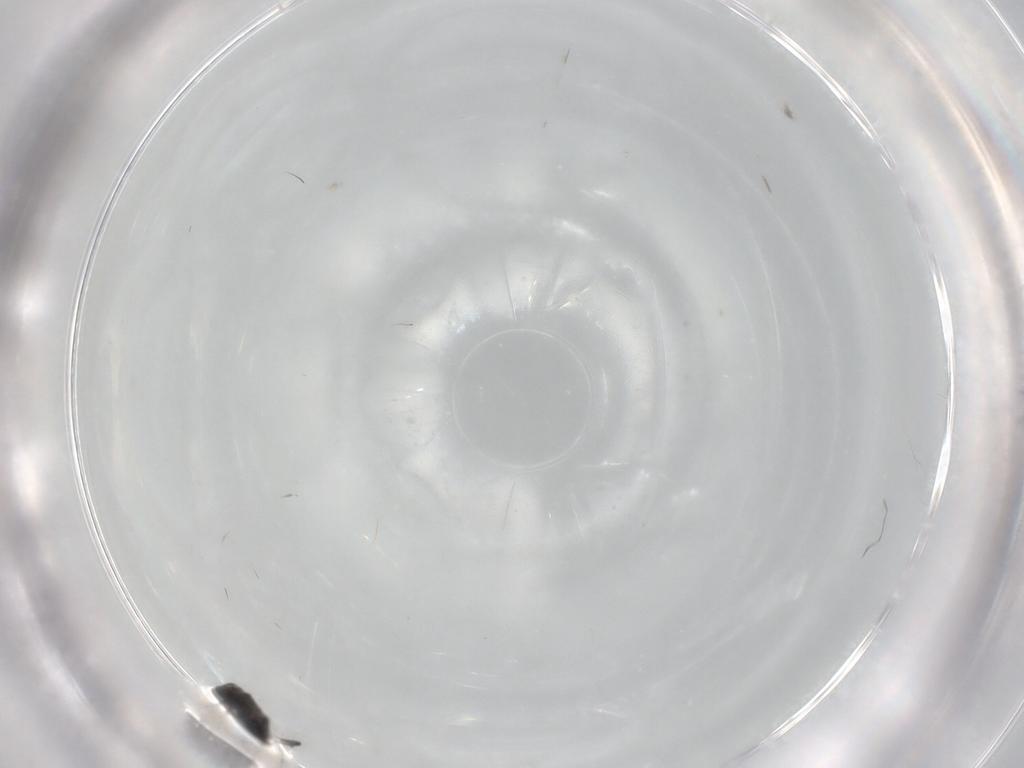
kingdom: Animalia
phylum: Arthropoda
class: Insecta
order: Diptera
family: Ceratopogonidae
